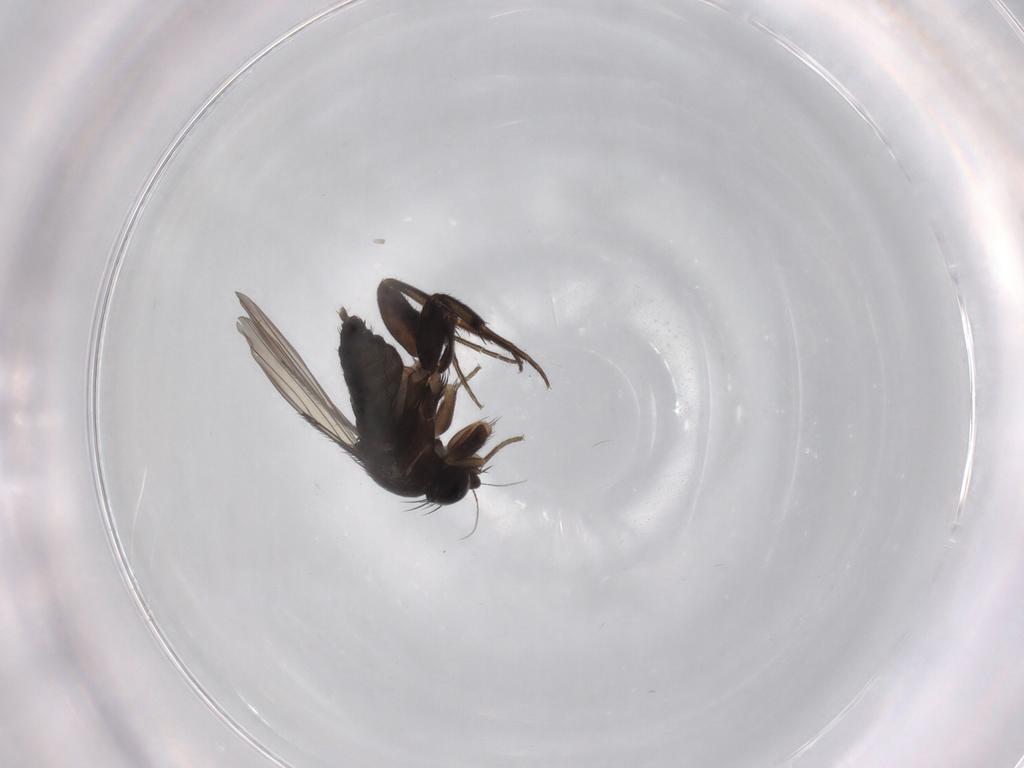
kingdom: Animalia
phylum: Arthropoda
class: Insecta
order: Diptera
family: Phoridae
